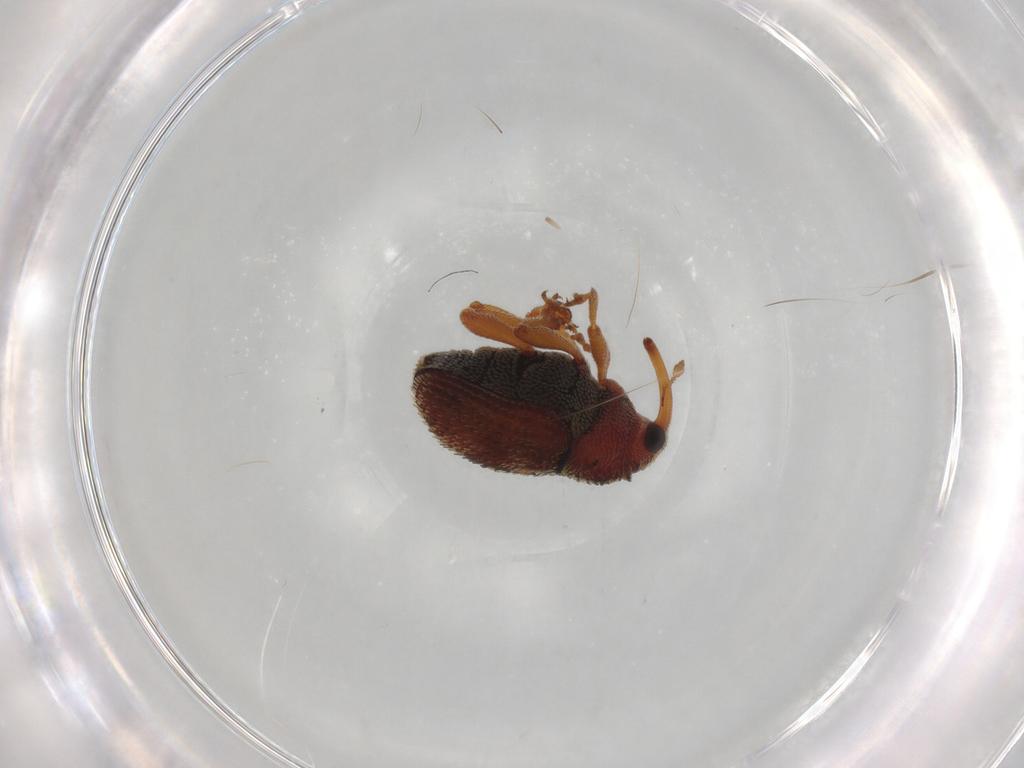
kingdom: Animalia
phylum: Arthropoda
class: Insecta
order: Coleoptera
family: Curculionidae
